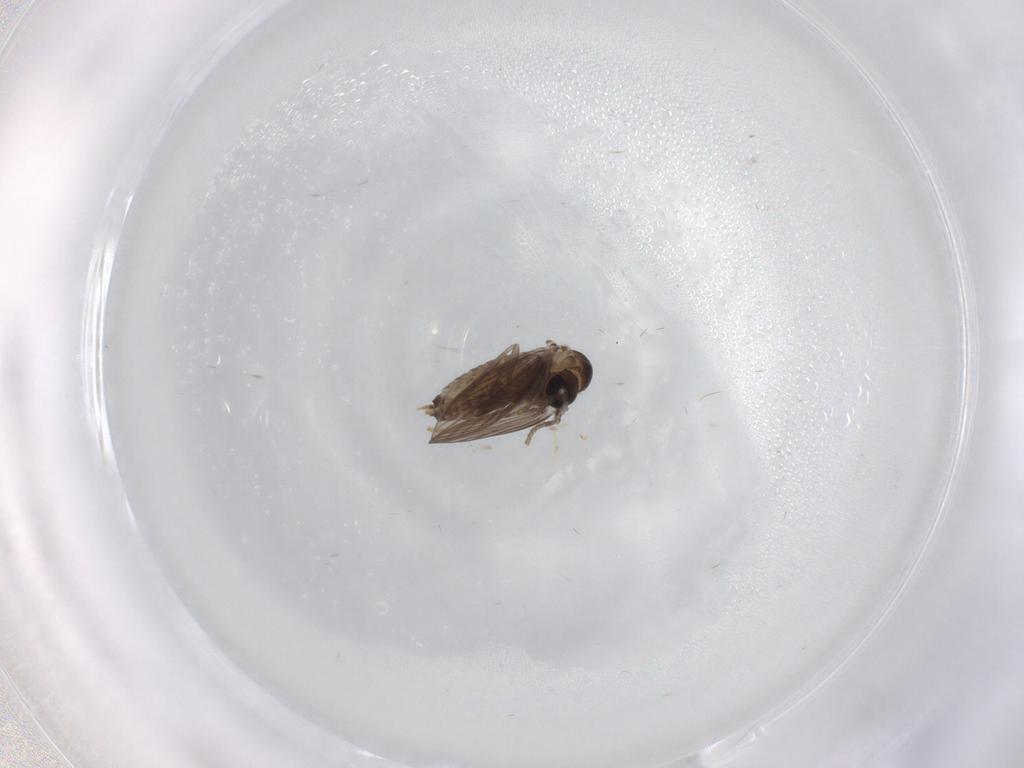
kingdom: Animalia
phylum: Arthropoda
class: Insecta
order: Diptera
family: Psychodidae
